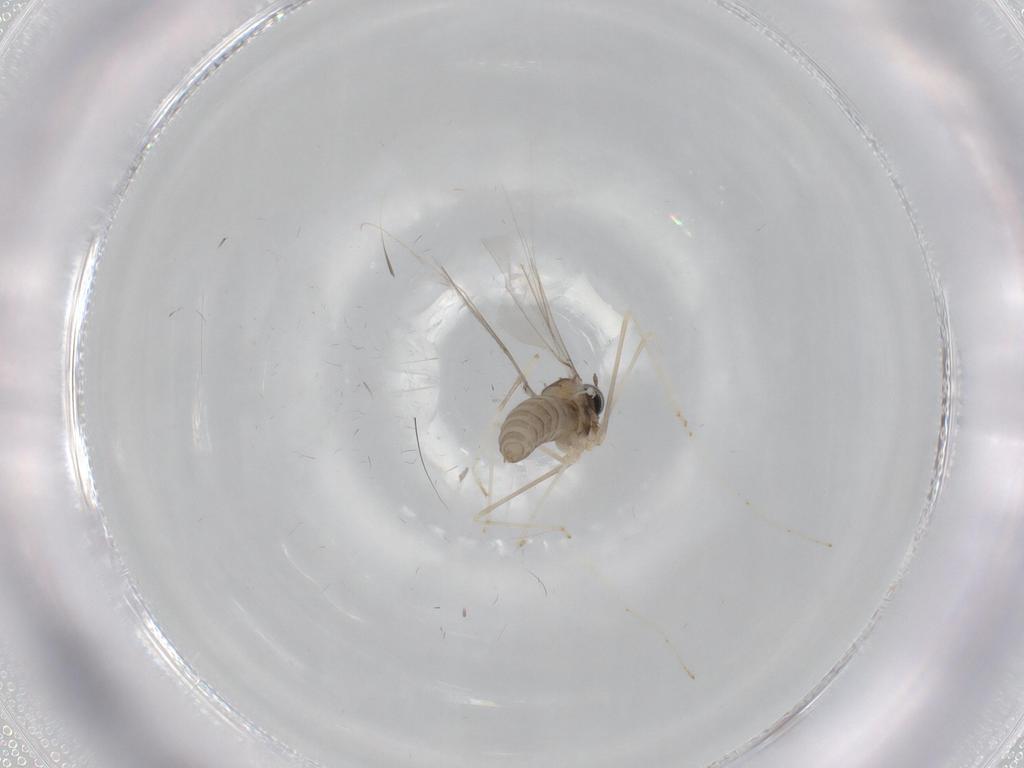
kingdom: Animalia
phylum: Arthropoda
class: Insecta
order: Diptera
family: Cecidomyiidae
